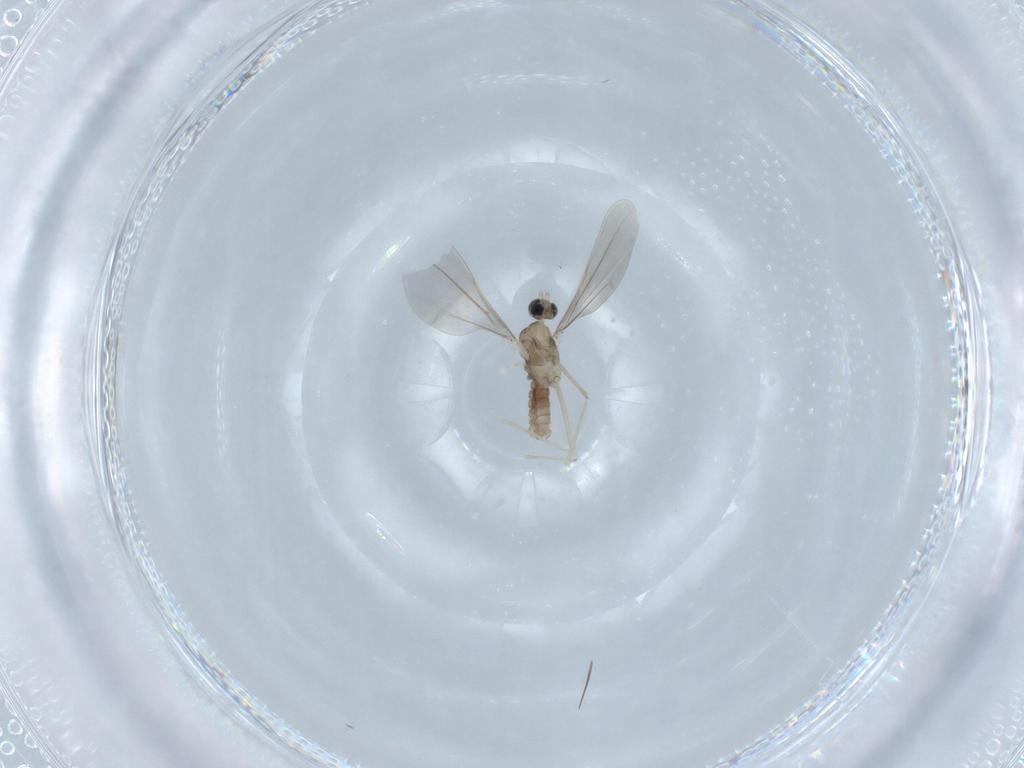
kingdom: Animalia
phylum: Arthropoda
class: Insecta
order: Diptera
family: Cecidomyiidae
